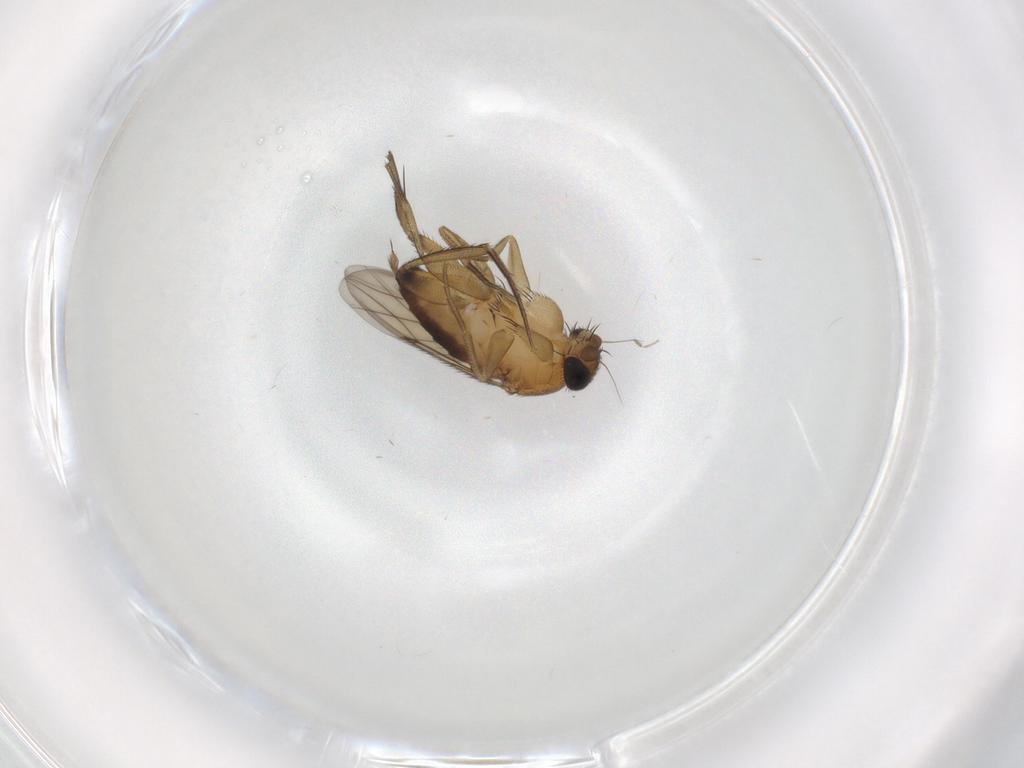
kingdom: Animalia
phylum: Arthropoda
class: Insecta
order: Diptera
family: Phoridae
